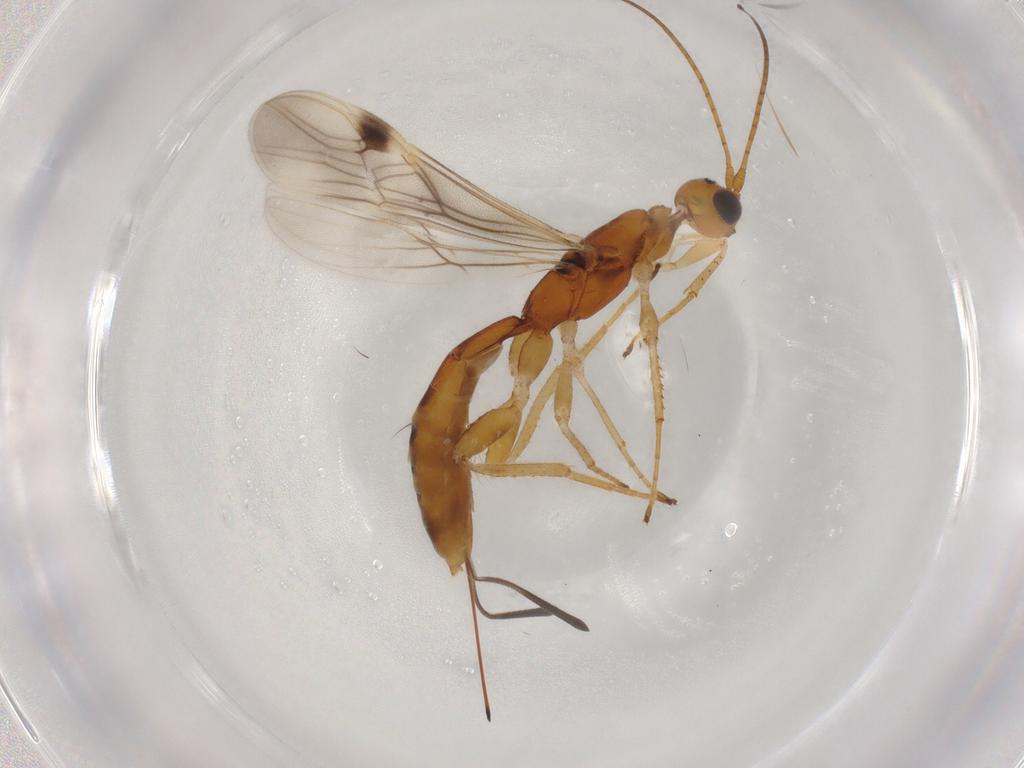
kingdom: Animalia
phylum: Arthropoda
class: Insecta
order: Hymenoptera
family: Braconidae
